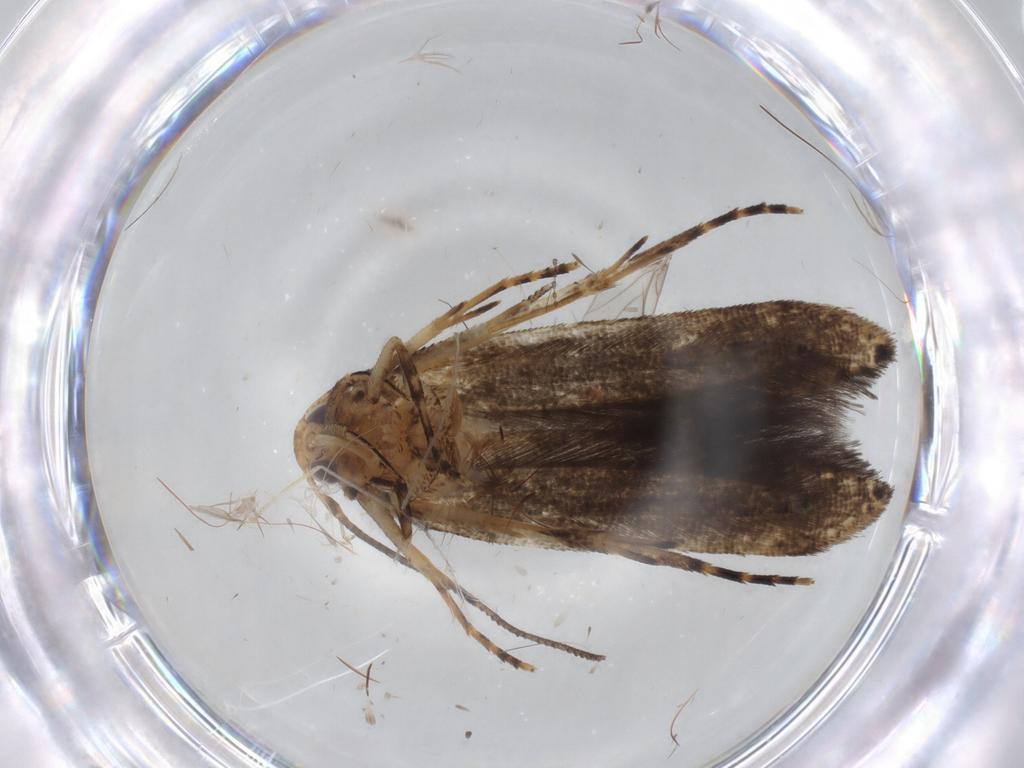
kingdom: Animalia
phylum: Arthropoda
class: Insecta
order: Lepidoptera
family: Cosmopterigidae
